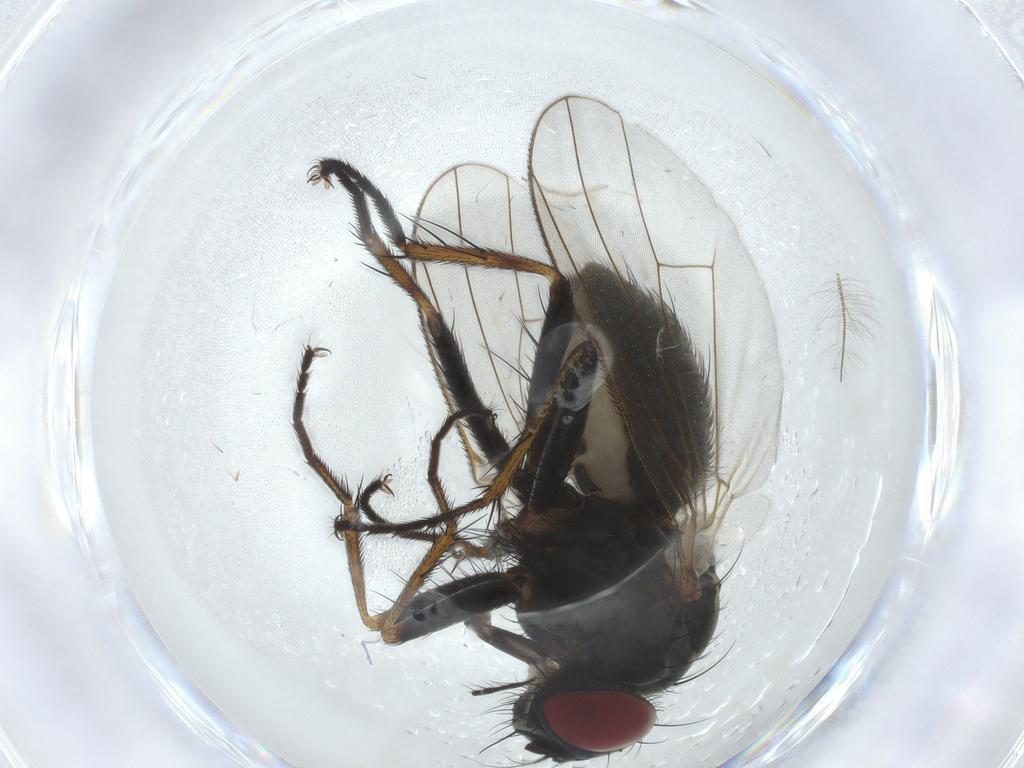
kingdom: Animalia
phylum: Arthropoda
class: Insecta
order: Diptera
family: Muscidae
